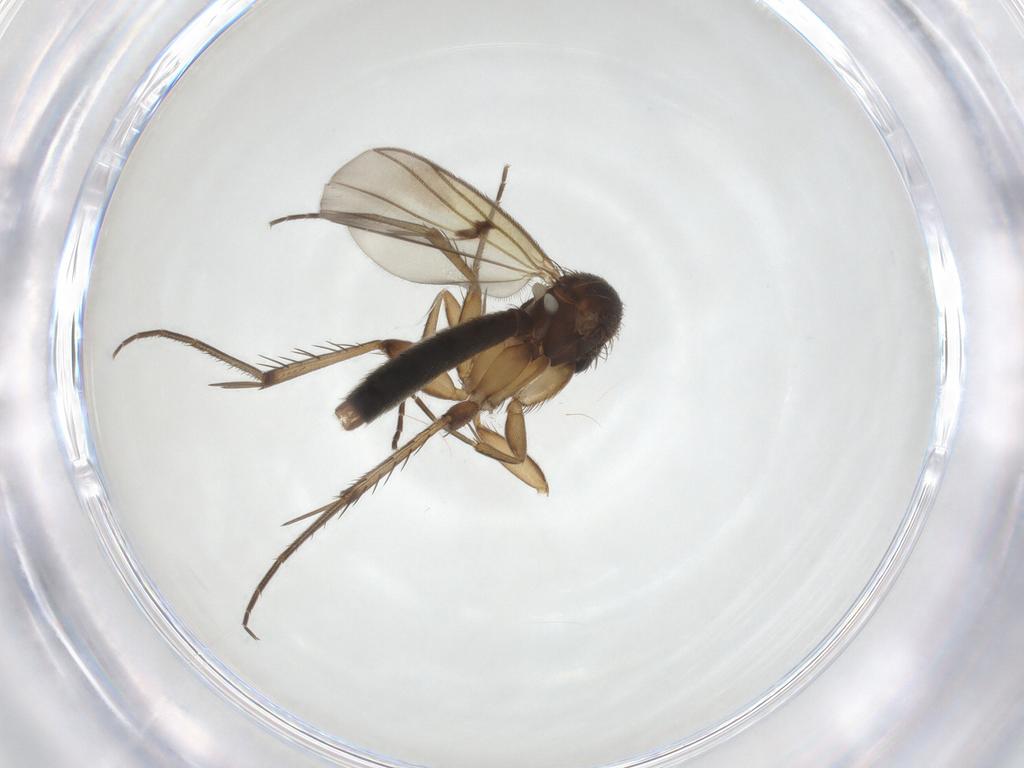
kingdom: Animalia
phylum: Arthropoda
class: Insecta
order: Diptera
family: Mycetophilidae
